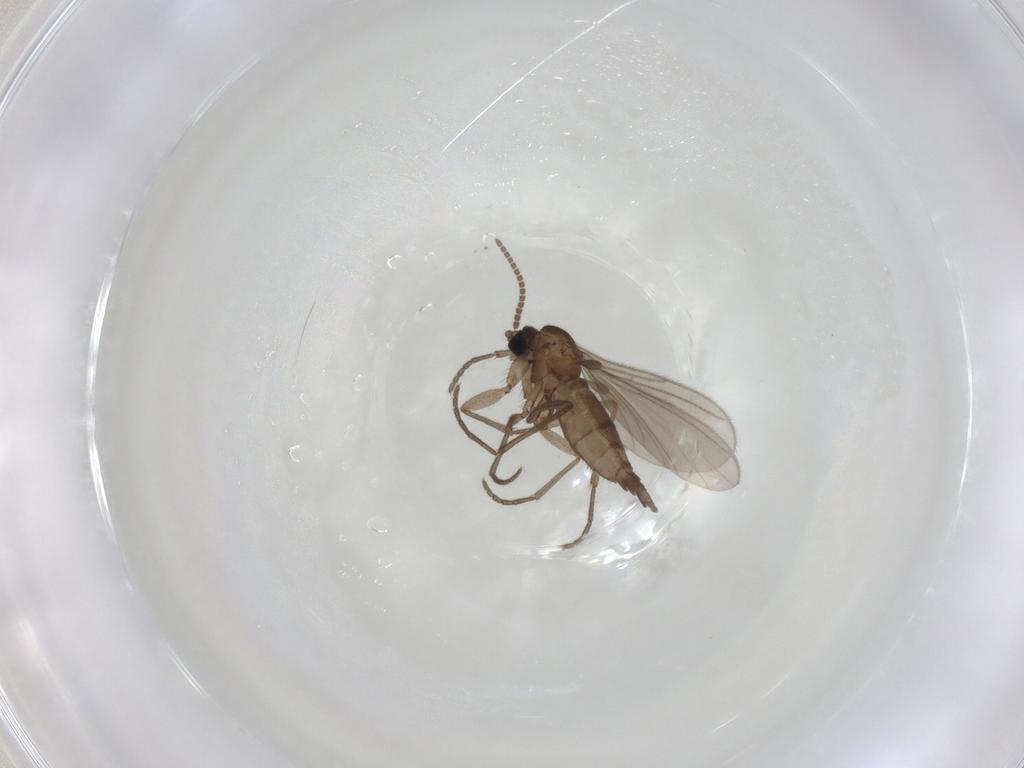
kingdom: Animalia
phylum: Arthropoda
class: Insecta
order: Diptera
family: Sciaridae
